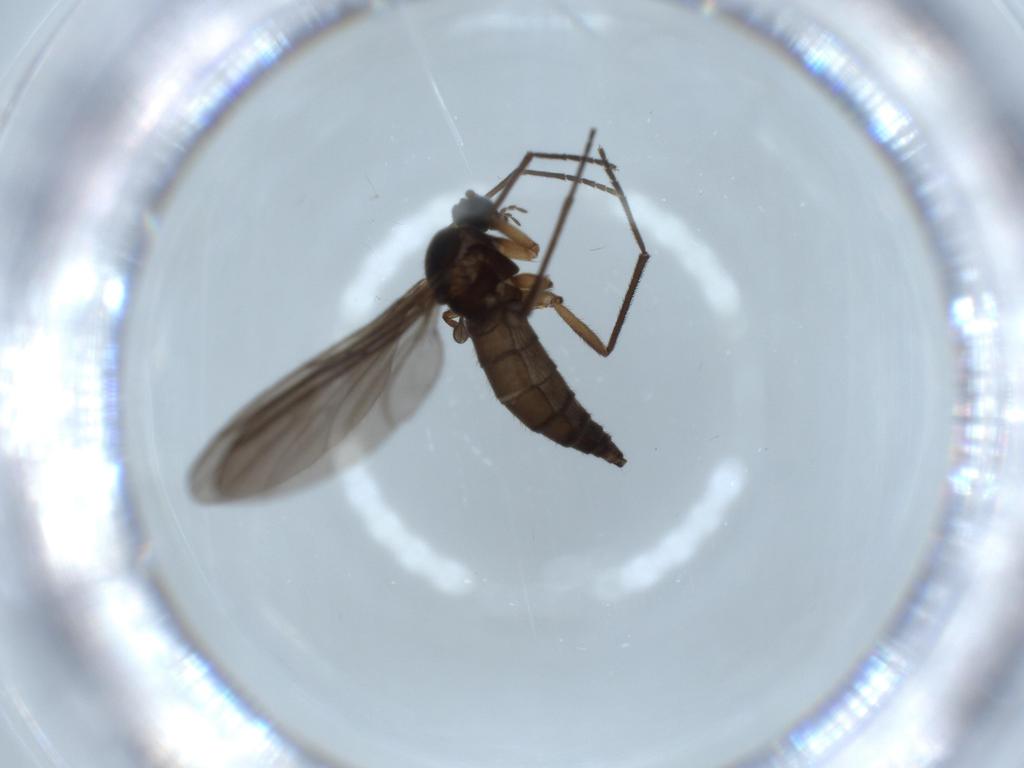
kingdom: Animalia
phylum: Arthropoda
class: Insecta
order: Diptera
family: Sciaridae
